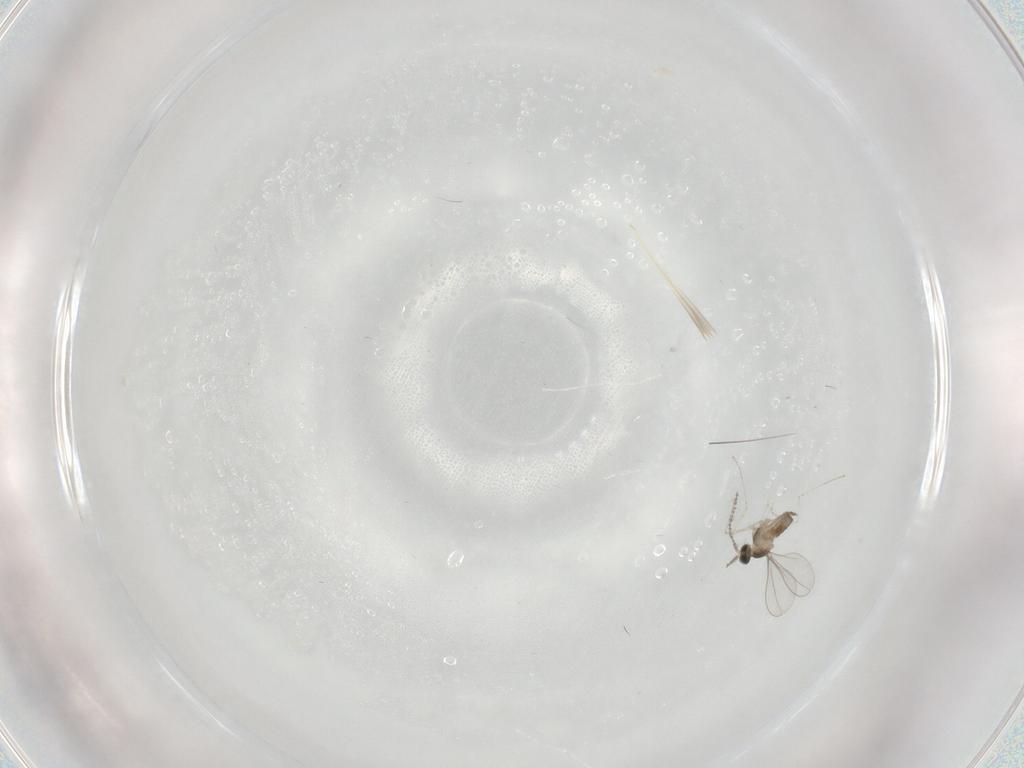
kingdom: Animalia
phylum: Arthropoda
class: Insecta
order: Diptera
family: Cecidomyiidae
